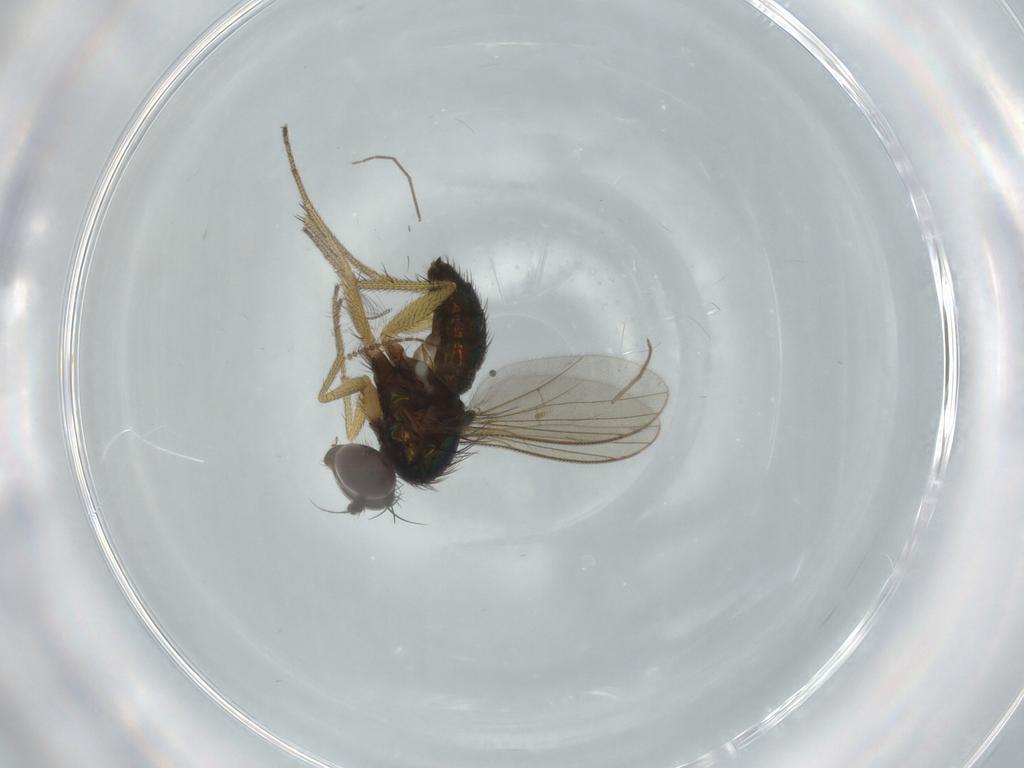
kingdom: Animalia
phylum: Arthropoda
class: Insecta
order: Diptera
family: Ceratopogonidae
